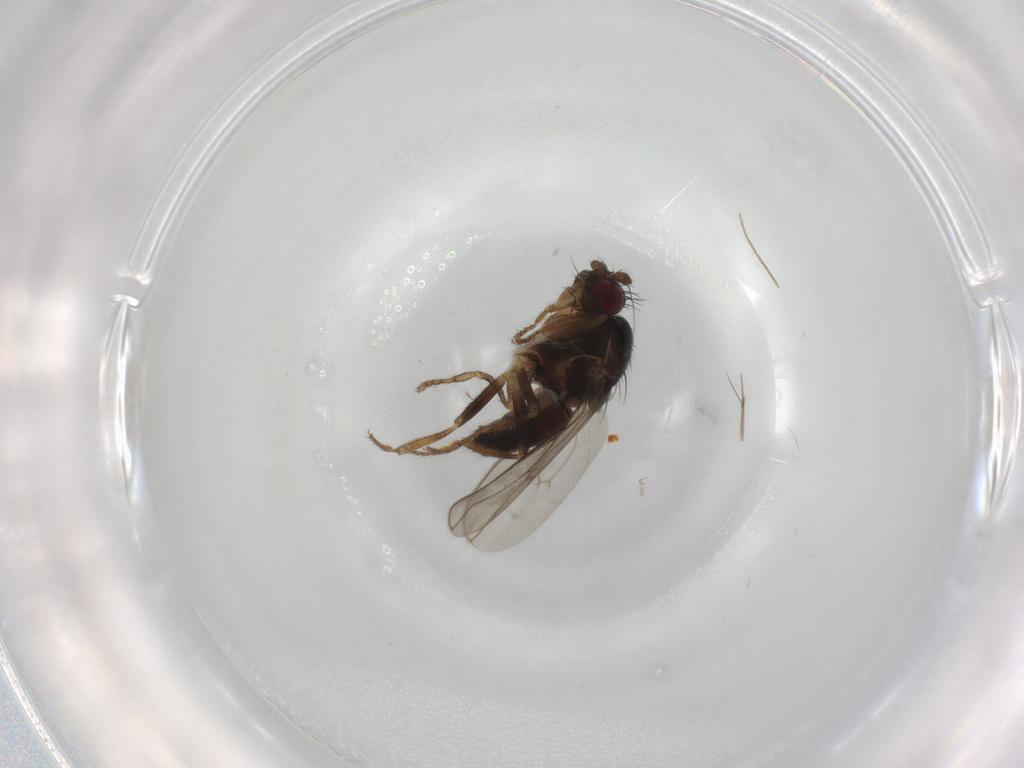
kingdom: Animalia
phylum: Arthropoda
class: Insecta
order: Diptera
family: Sphaeroceridae
